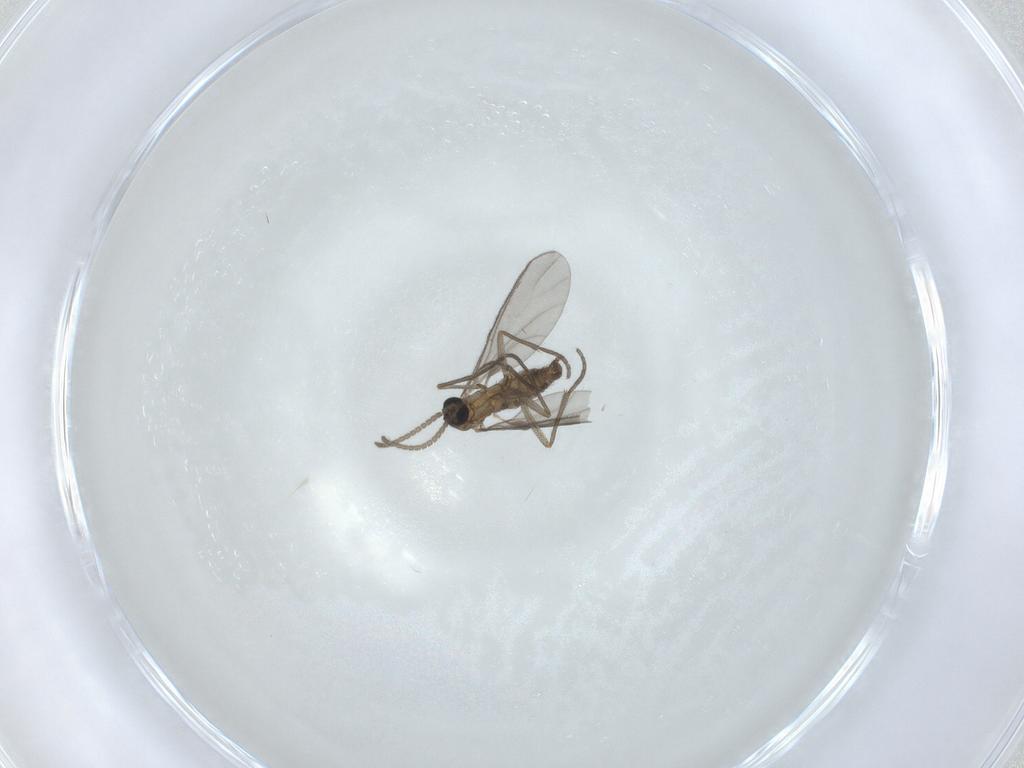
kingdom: Animalia
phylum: Arthropoda
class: Insecta
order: Diptera
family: Sciaridae
